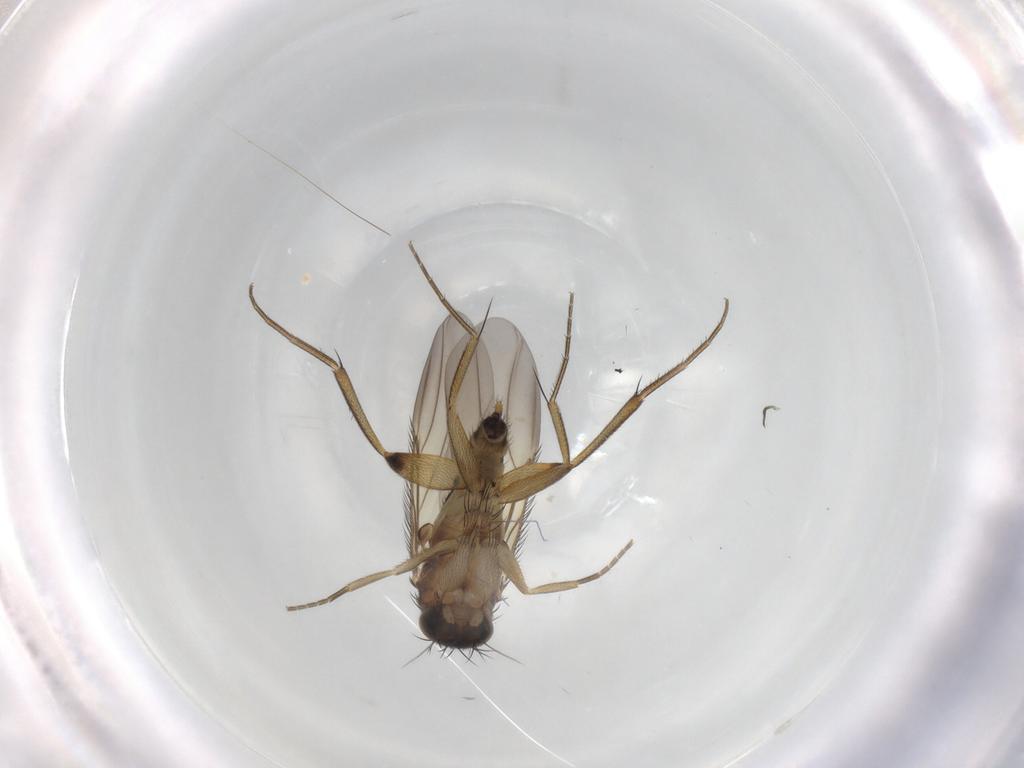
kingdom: Animalia
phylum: Arthropoda
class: Insecta
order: Diptera
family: Phoridae
